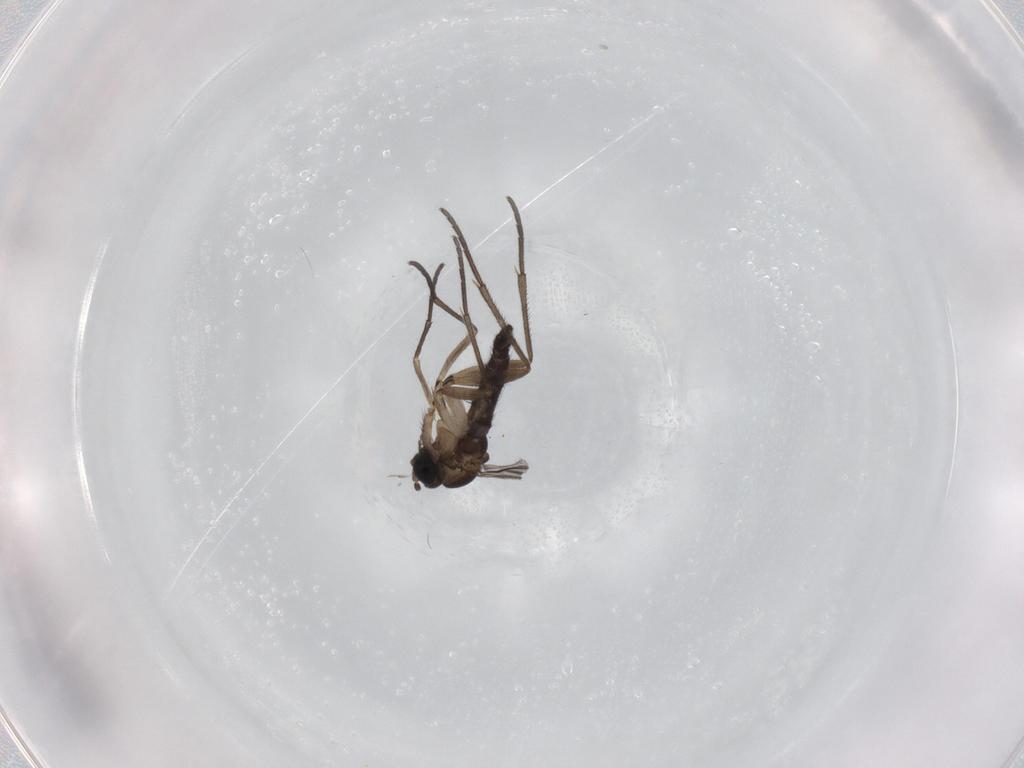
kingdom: Animalia
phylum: Arthropoda
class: Insecta
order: Diptera
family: Sciaridae
